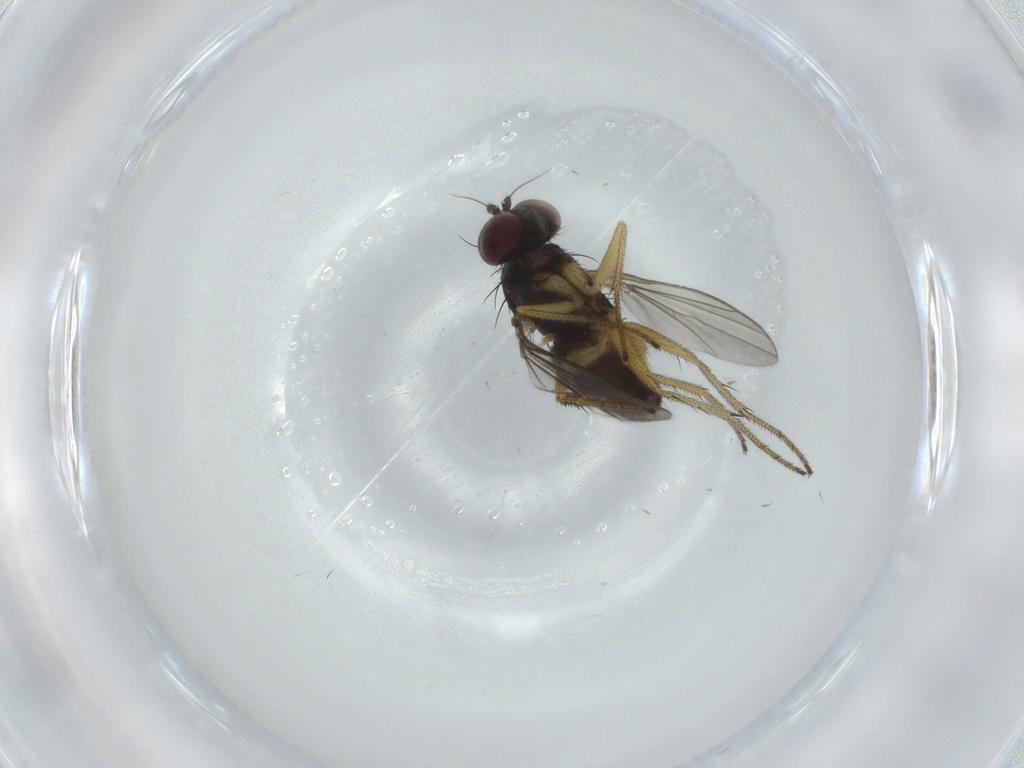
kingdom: Animalia
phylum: Arthropoda
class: Insecta
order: Diptera
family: Dolichopodidae
